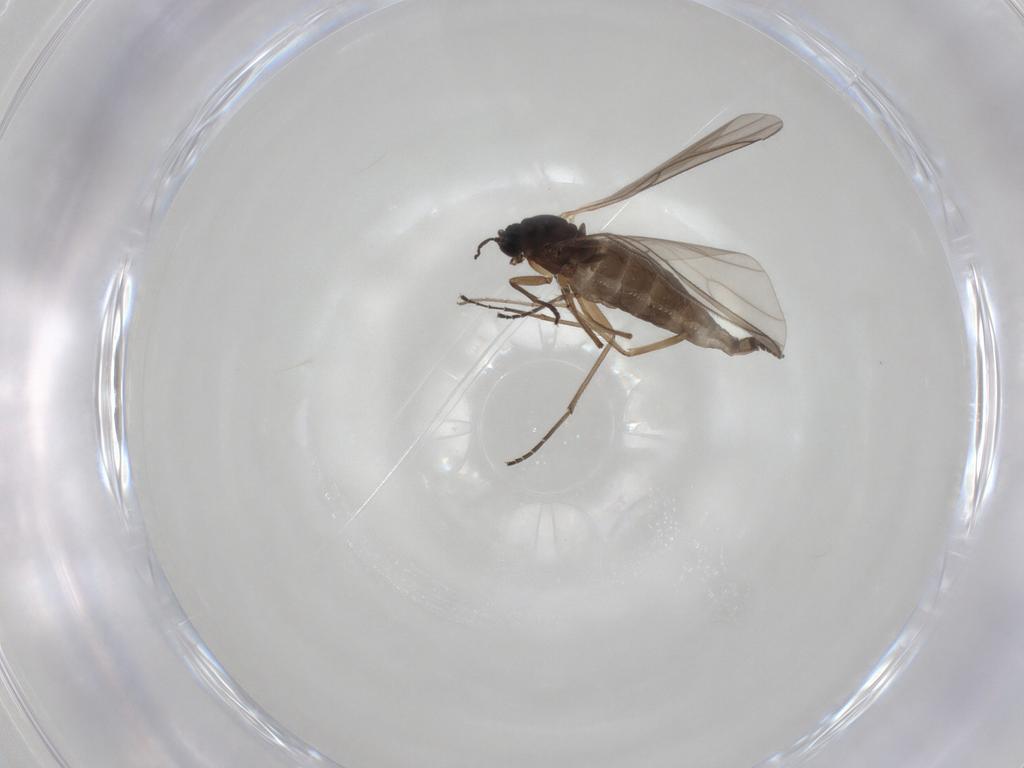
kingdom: Animalia
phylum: Arthropoda
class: Insecta
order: Diptera
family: Sciaridae
